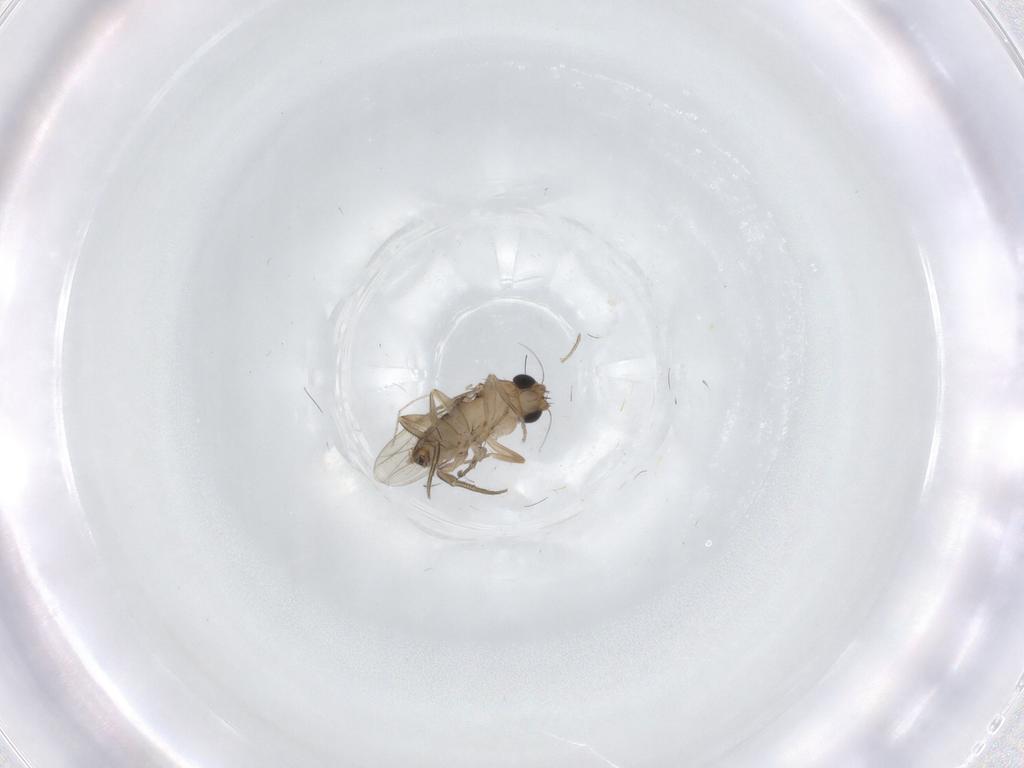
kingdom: Animalia
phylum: Arthropoda
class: Insecta
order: Diptera
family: Phoridae
